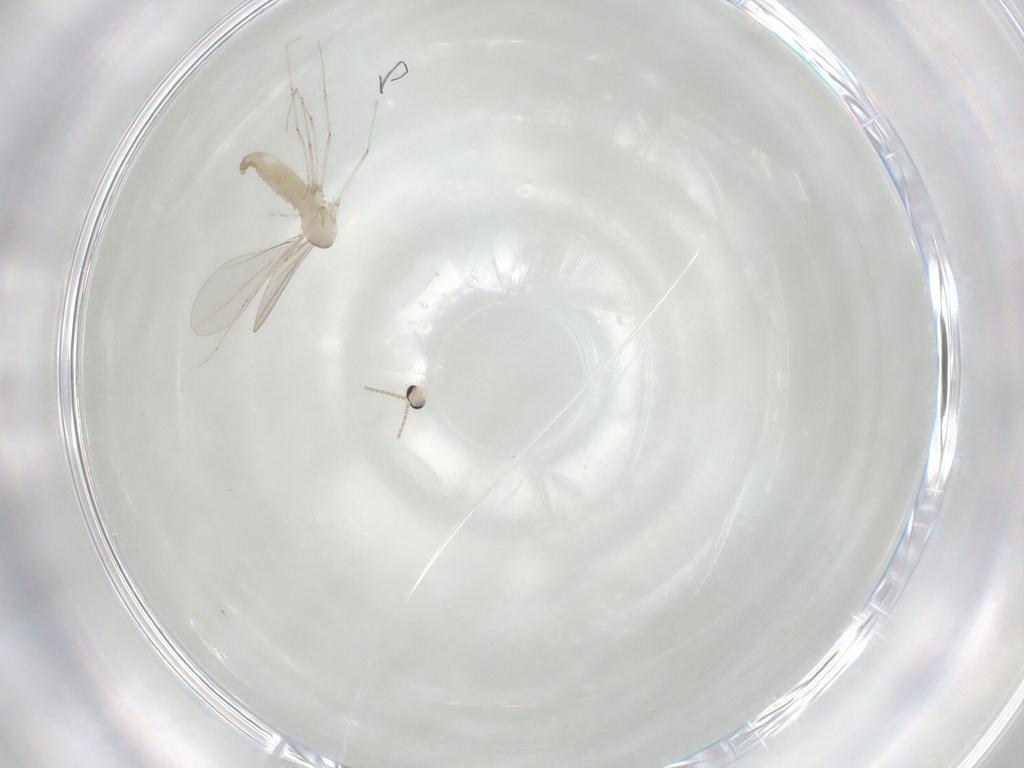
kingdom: Animalia
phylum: Arthropoda
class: Insecta
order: Diptera
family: Cecidomyiidae
